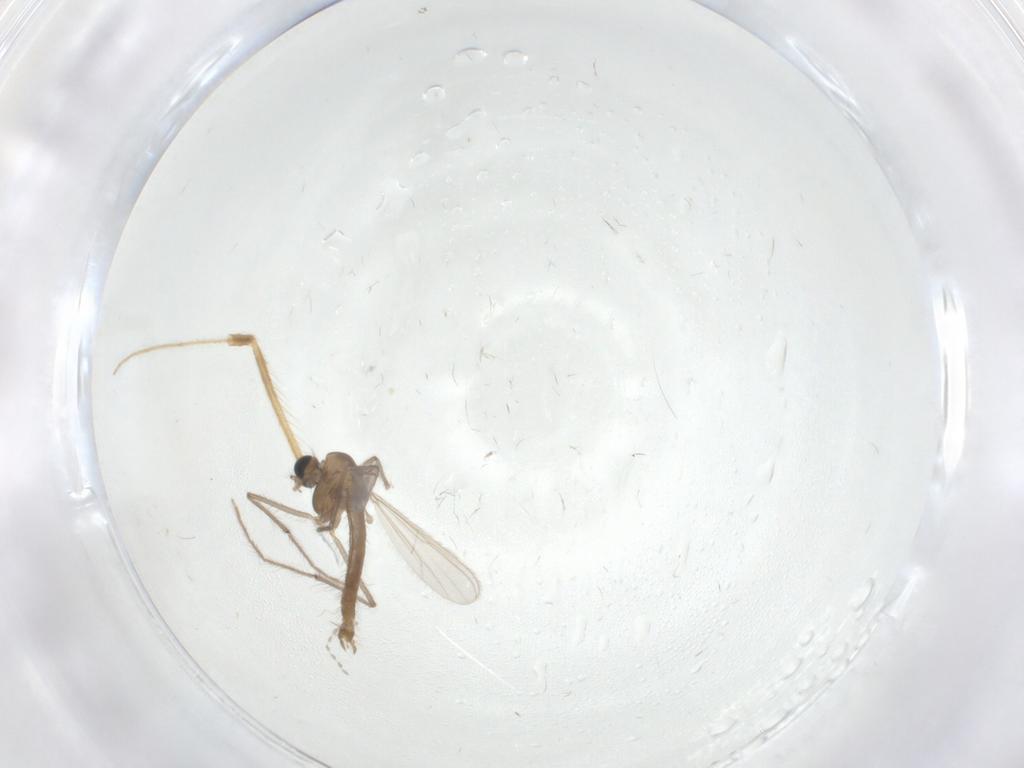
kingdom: Animalia
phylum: Arthropoda
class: Insecta
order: Diptera
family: Chironomidae
